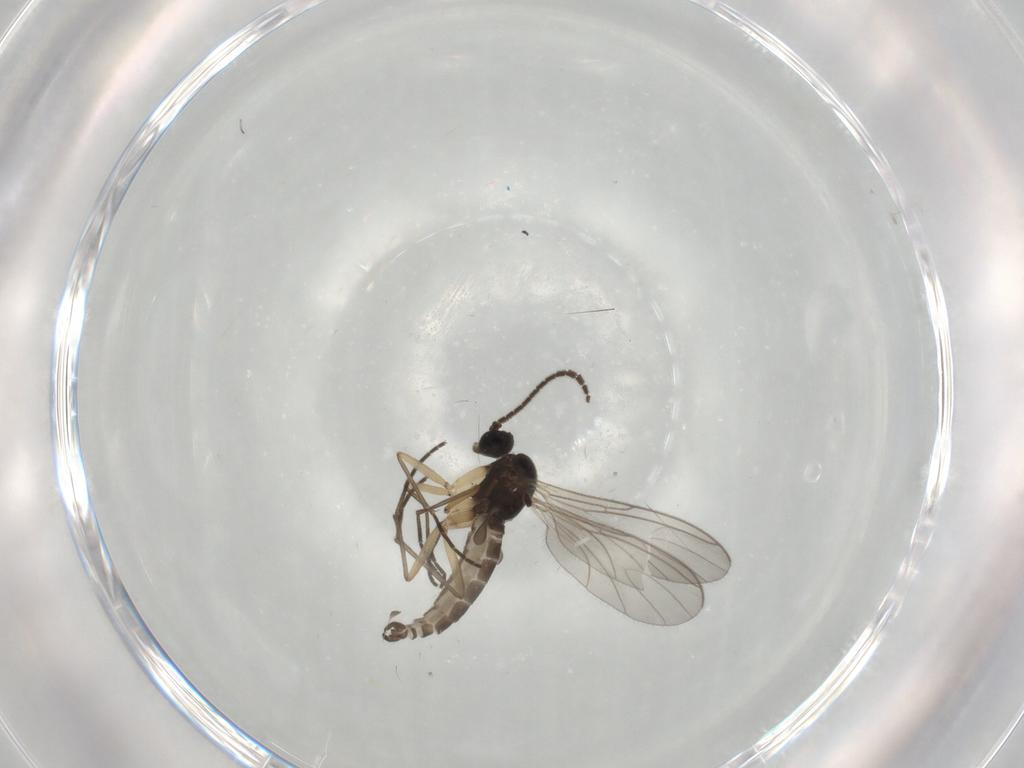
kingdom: Animalia
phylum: Arthropoda
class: Insecta
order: Diptera
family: Sciaridae
